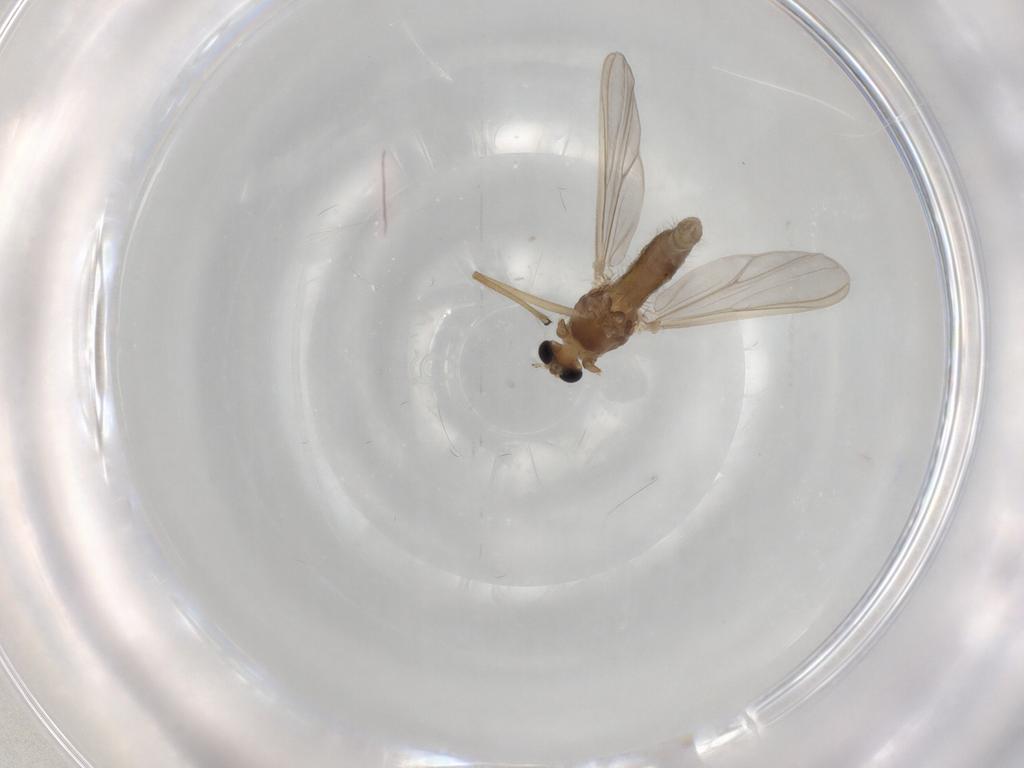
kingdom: Animalia
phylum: Arthropoda
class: Insecta
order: Diptera
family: Chironomidae
